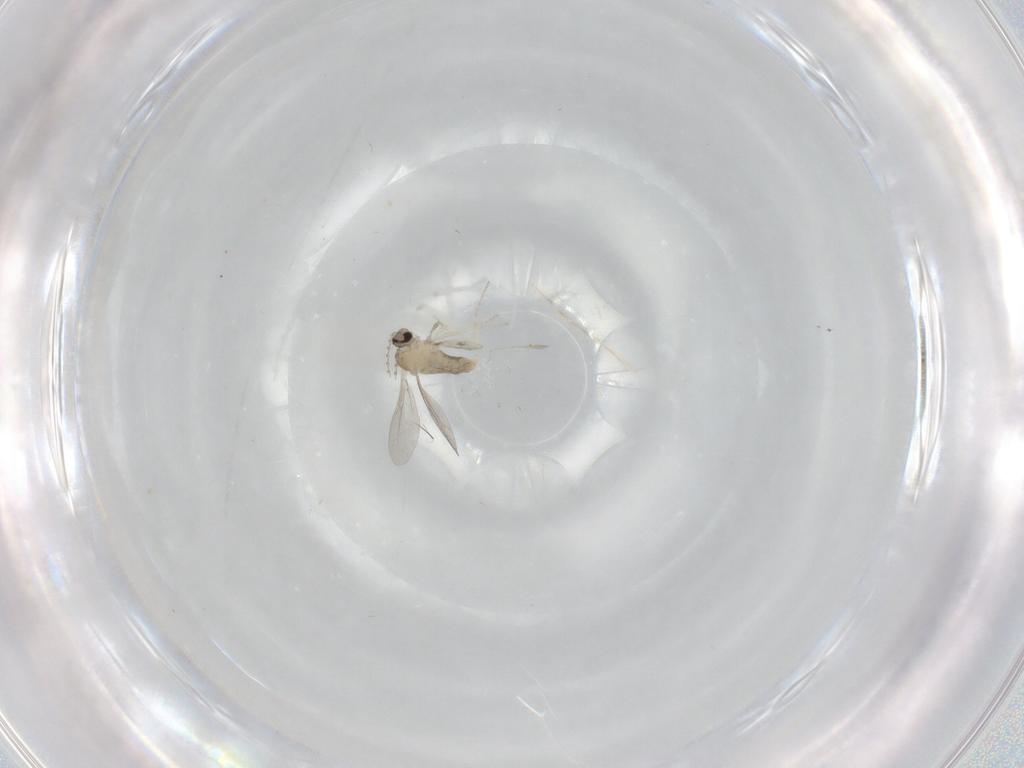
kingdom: Animalia
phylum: Arthropoda
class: Insecta
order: Diptera
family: Cecidomyiidae
